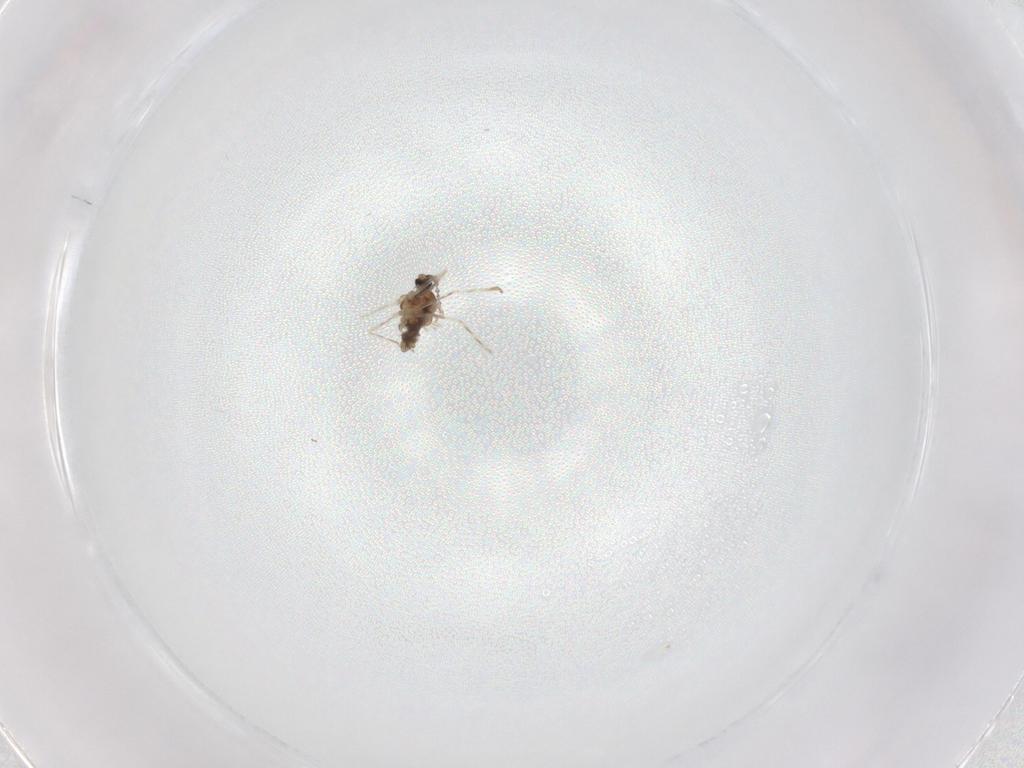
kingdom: Animalia
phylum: Arthropoda
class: Insecta
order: Diptera
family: Cecidomyiidae
